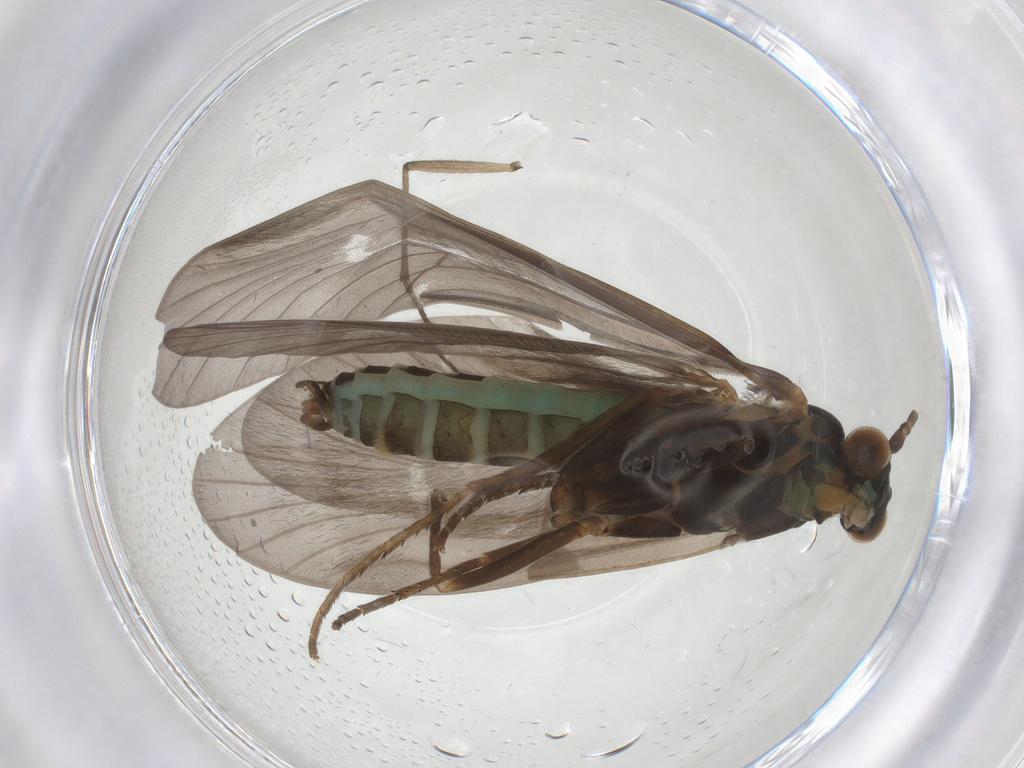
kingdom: Animalia
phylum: Arthropoda
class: Insecta
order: Trichoptera
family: Brachycentridae
